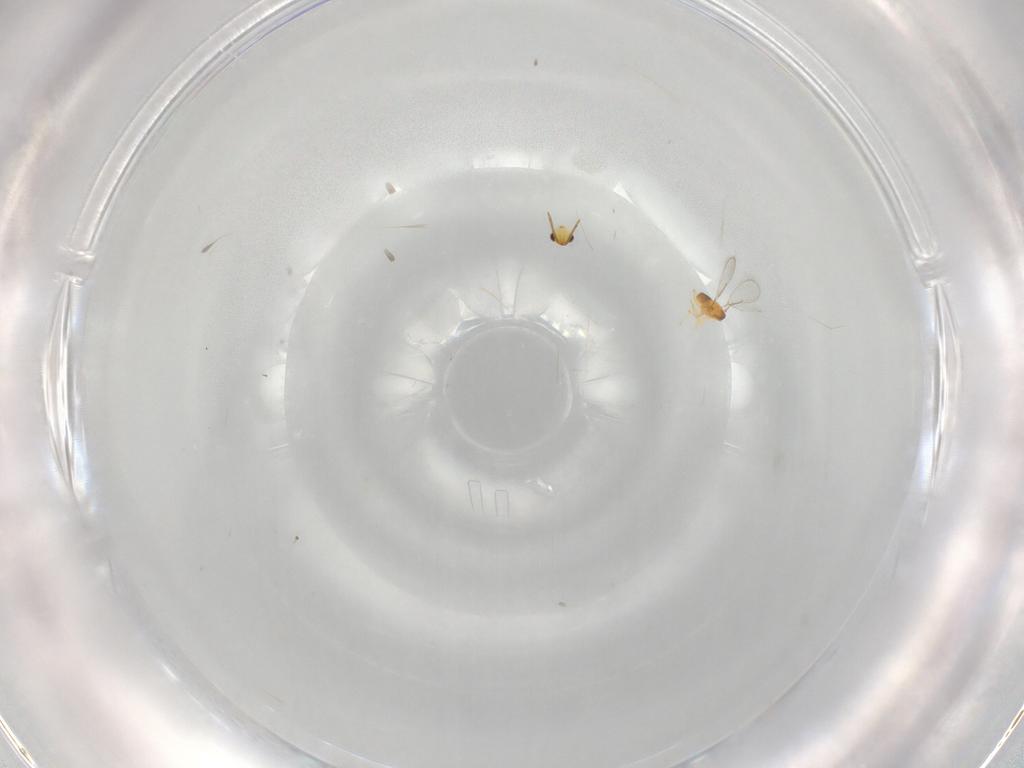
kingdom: Animalia
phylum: Arthropoda
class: Insecta
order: Hymenoptera
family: Aphelinidae
